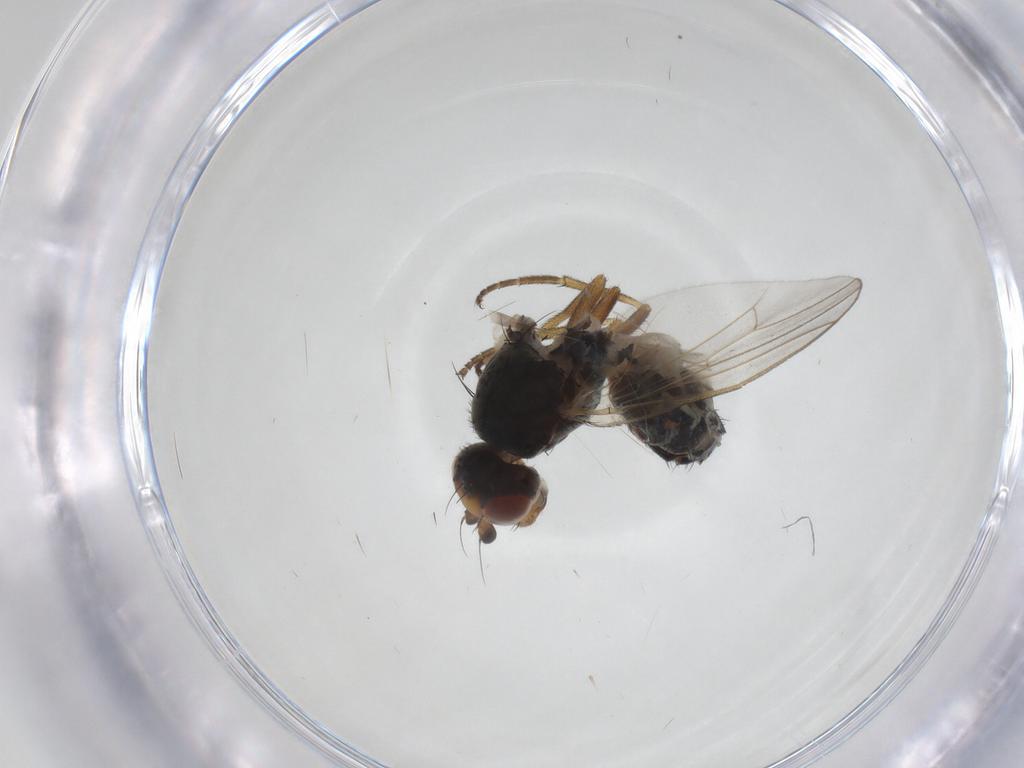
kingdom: Animalia
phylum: Arthropoda
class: Insecta
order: Diptera
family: Heleomyzidae
